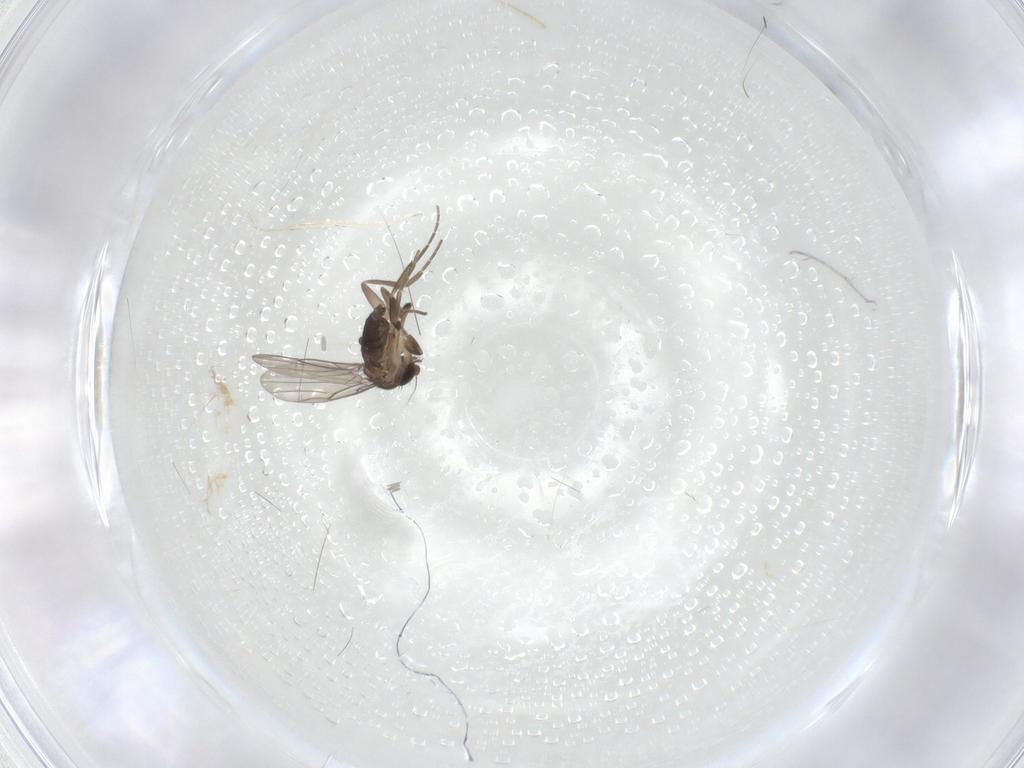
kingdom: Animalia
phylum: Arthropoda
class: Insecta
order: Diptera
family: Phoridae
